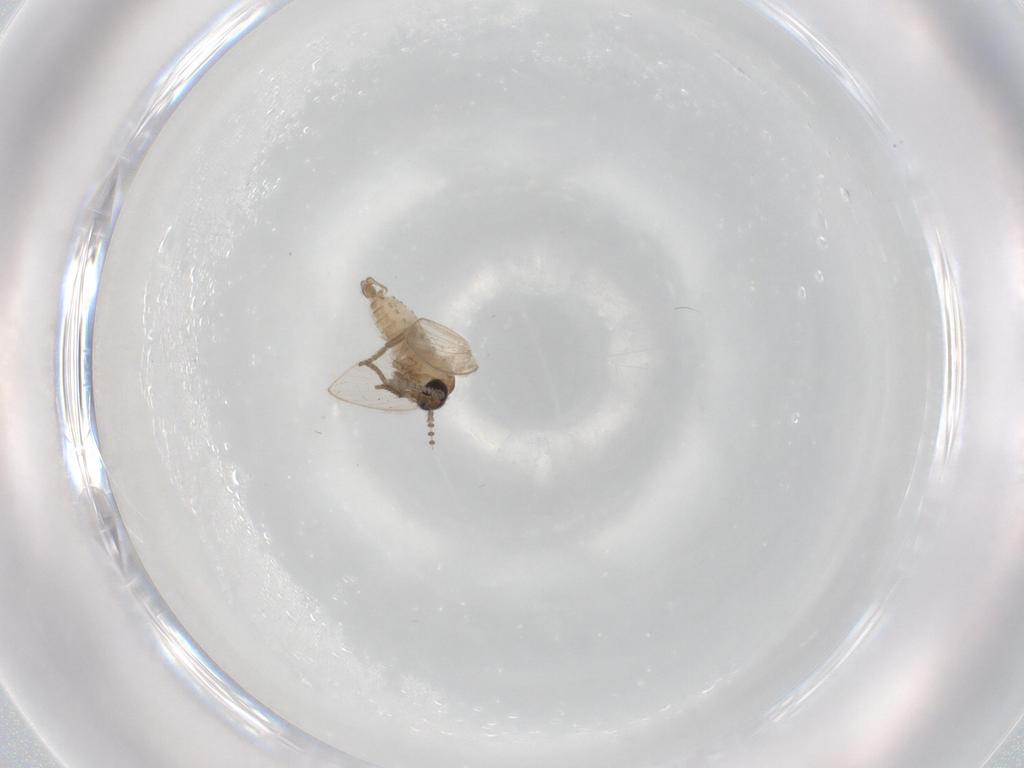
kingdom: Animalia
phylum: Arthropoda
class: Insecta
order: Diptera
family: Psychodidae
